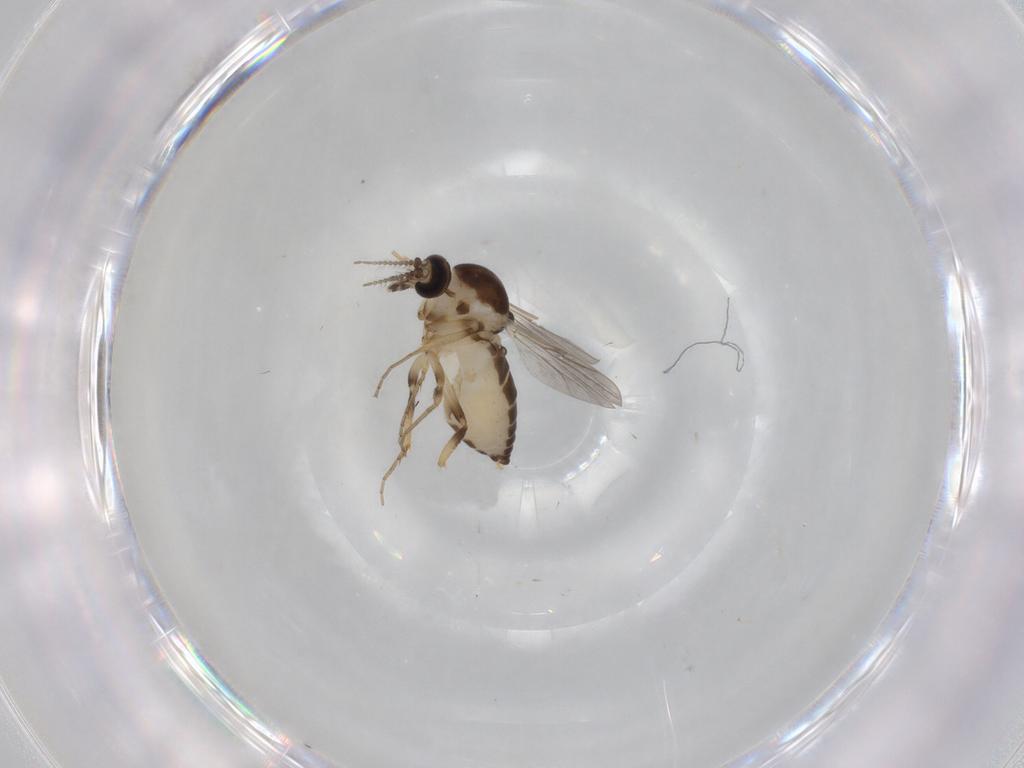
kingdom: Animalia
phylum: Arthropoda
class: Insecta
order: Diptera
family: Ceratopogonidae
